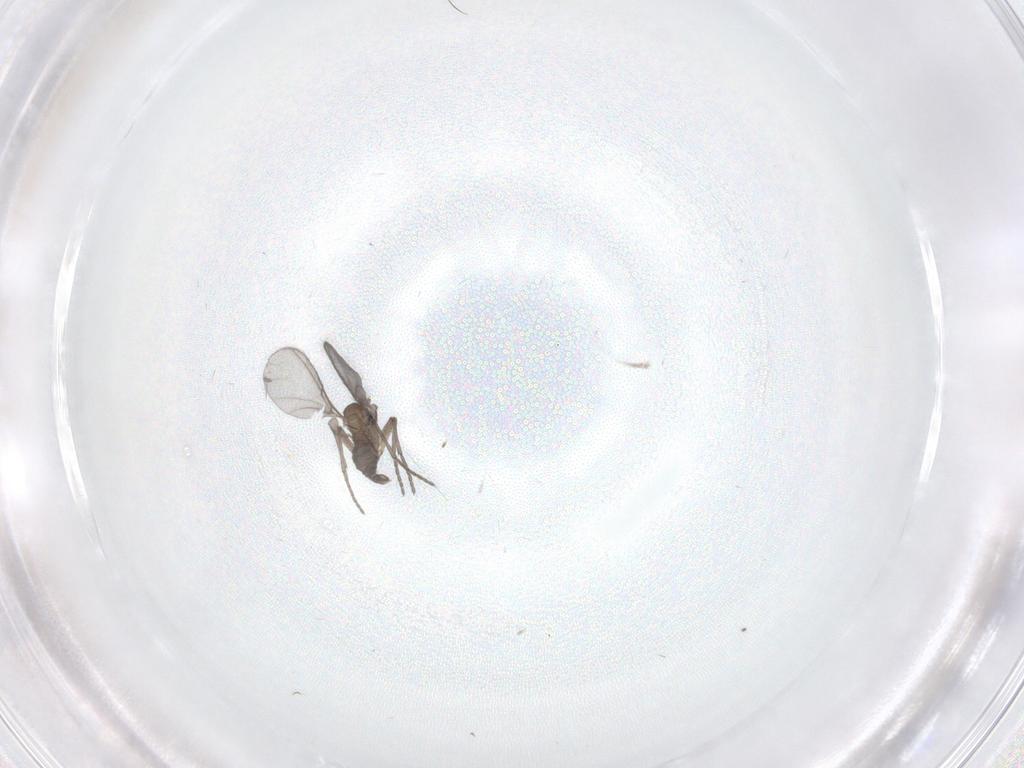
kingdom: Animalia
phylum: Arthropoda
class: Insecta
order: Diptera
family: Sciaridae
